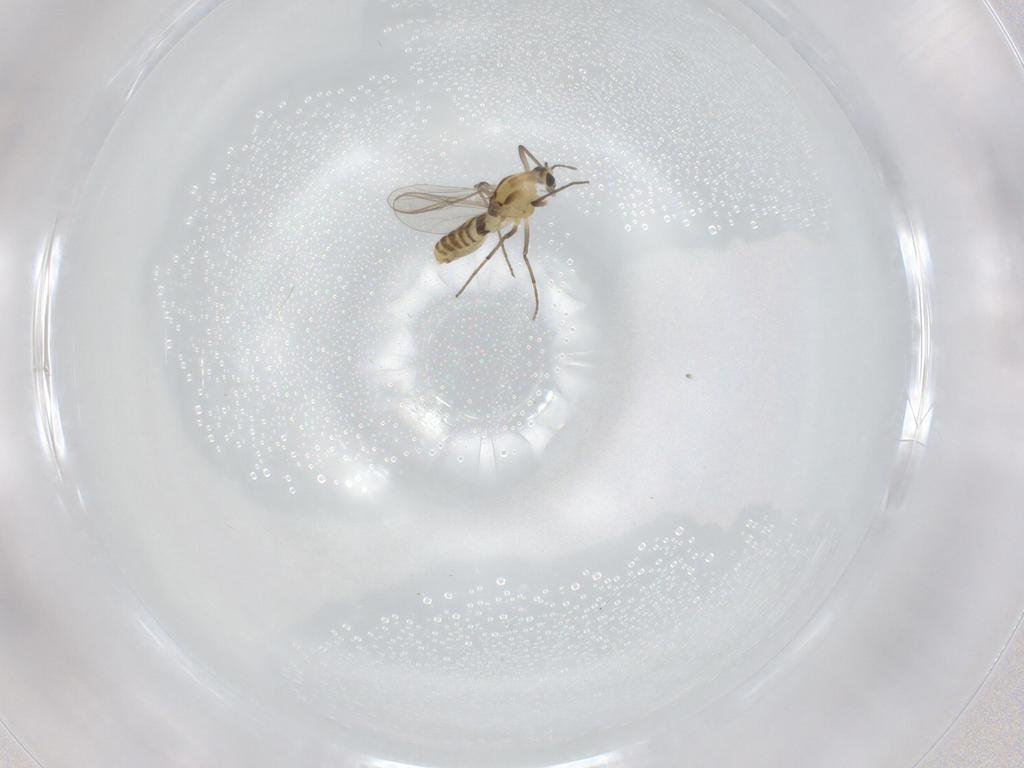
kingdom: Animalia
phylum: Arthropoda
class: Insecta
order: Diptera
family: Chironomidae
